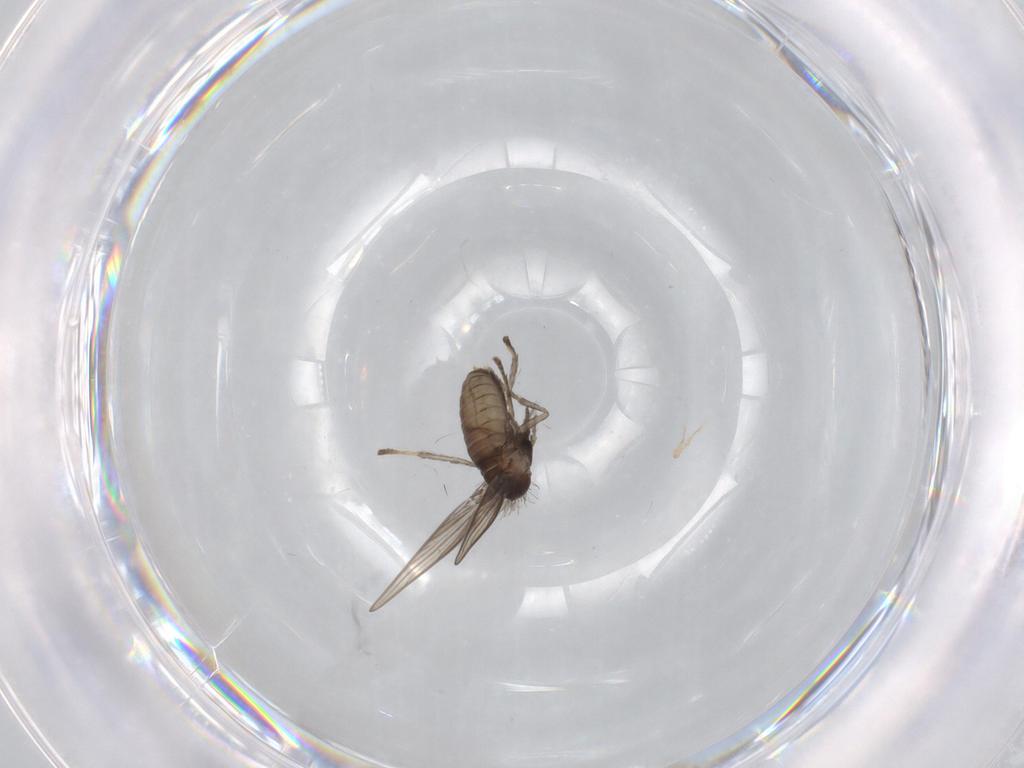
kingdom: Animalia
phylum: Arthropoda
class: Insecta
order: Diptera
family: Psychodidae
